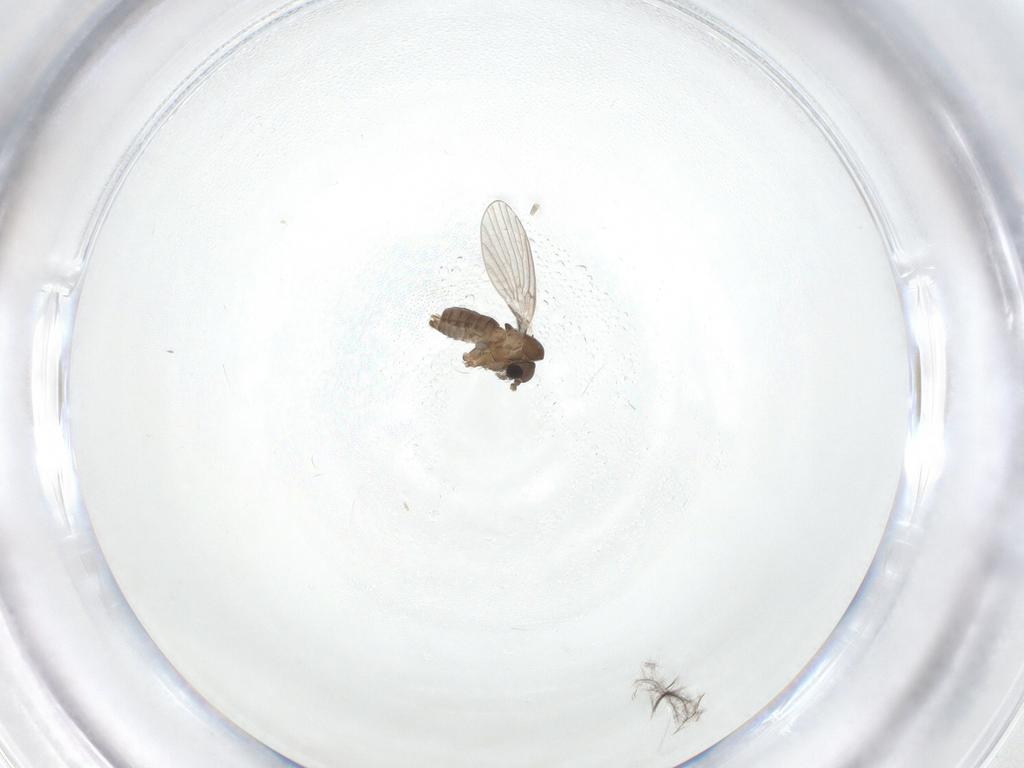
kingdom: Animalia
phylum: Arthropoda
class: Insecta
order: Diptera
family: Psychodidae
